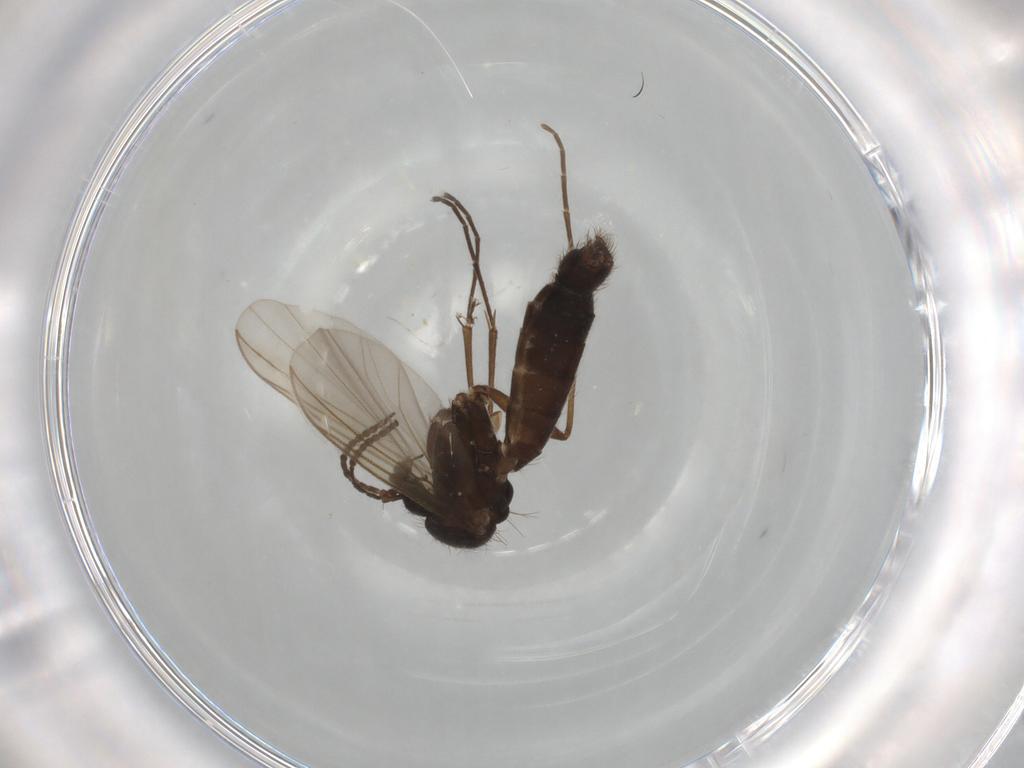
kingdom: Animalia
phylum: Arthropoda
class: Insecta
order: Diptera
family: Mycetophilidae
